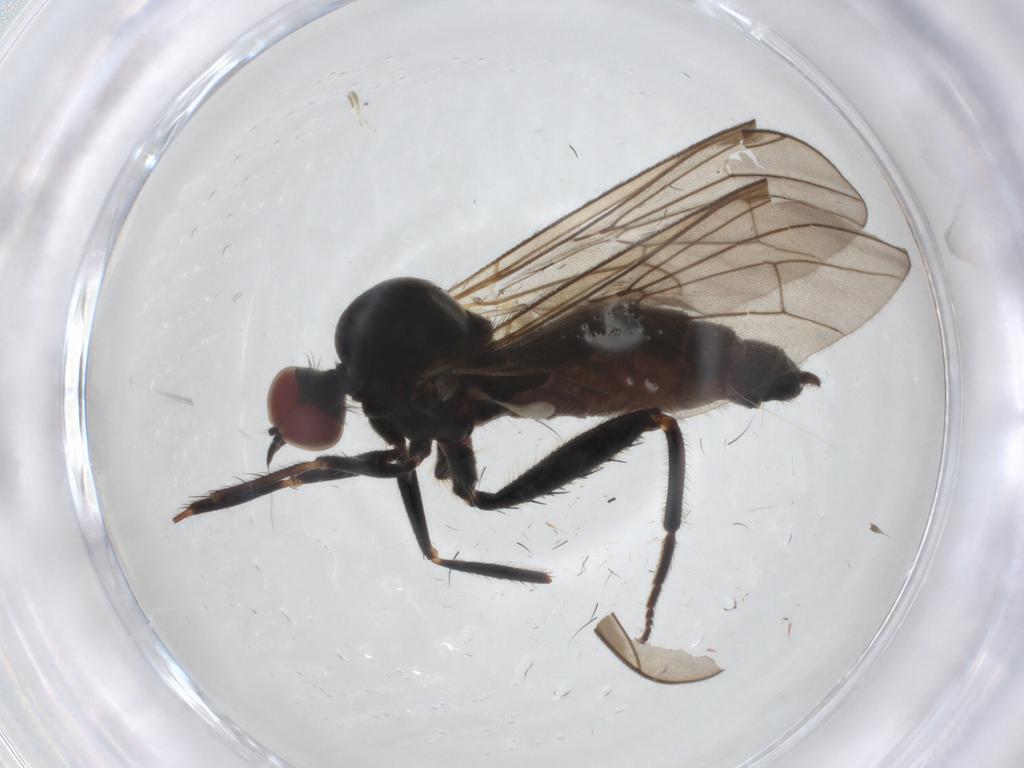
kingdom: Animalia
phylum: Arthropoda
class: Insecta
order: Diptera
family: Hybotidae
